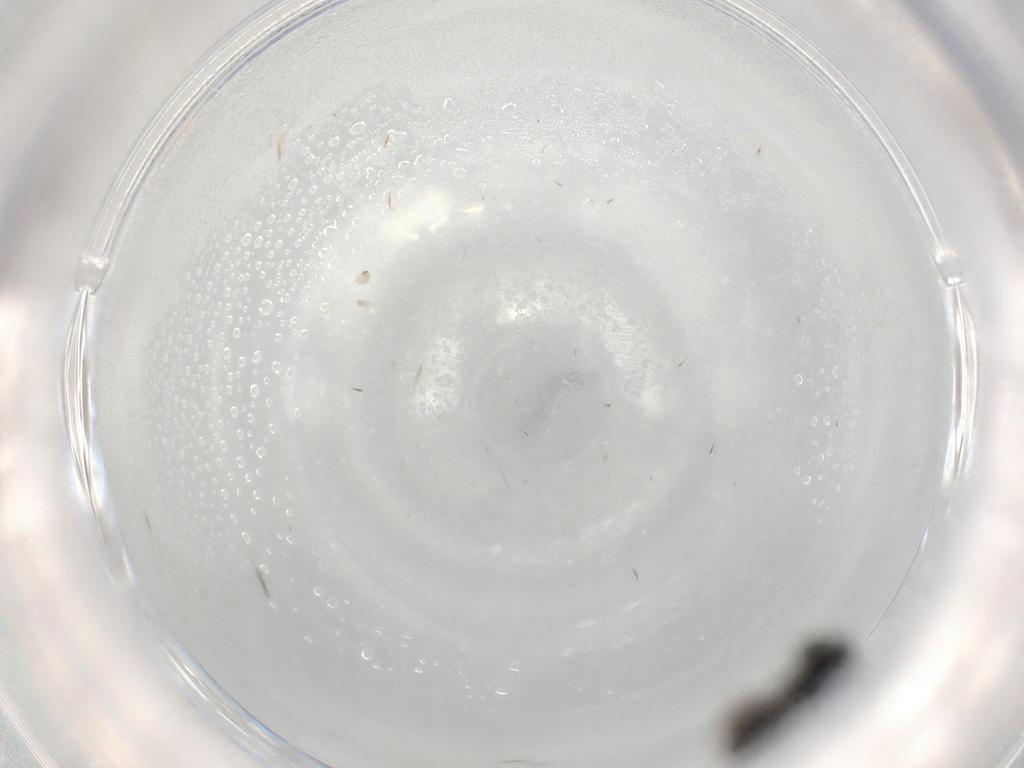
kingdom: Animalia
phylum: Arthropoda
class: Insecta
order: Hymenoptera
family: Scelionidae
